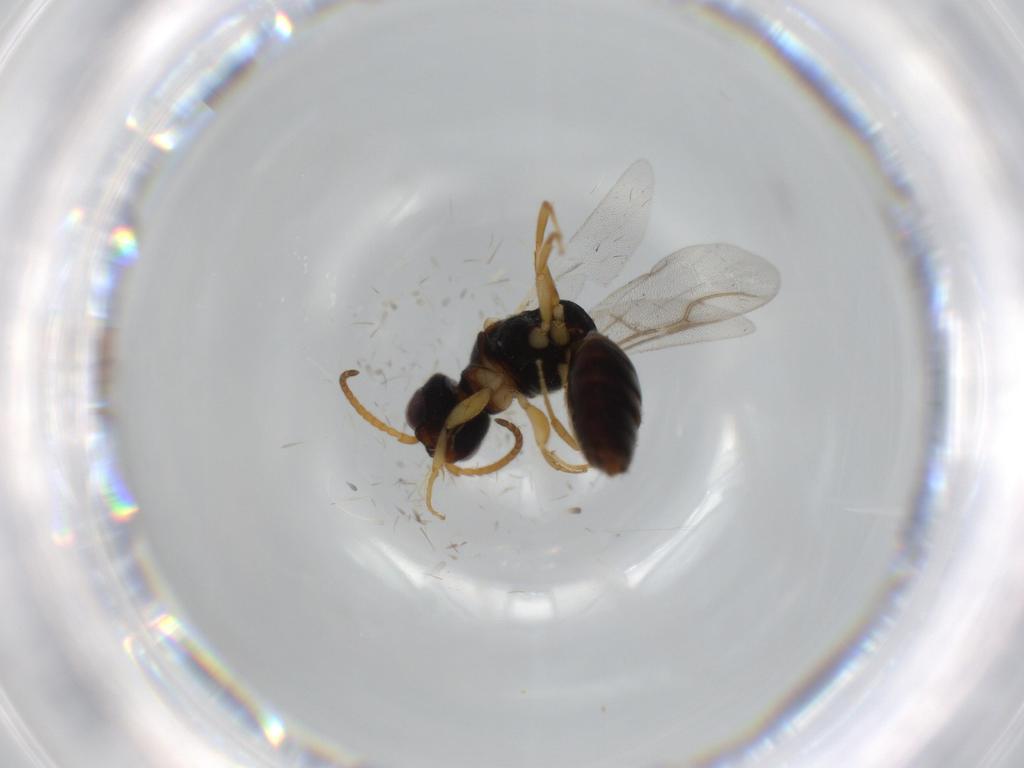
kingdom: Animalia
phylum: Arthropoda
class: Insecta
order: Hymenoptera
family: Bethylidae
